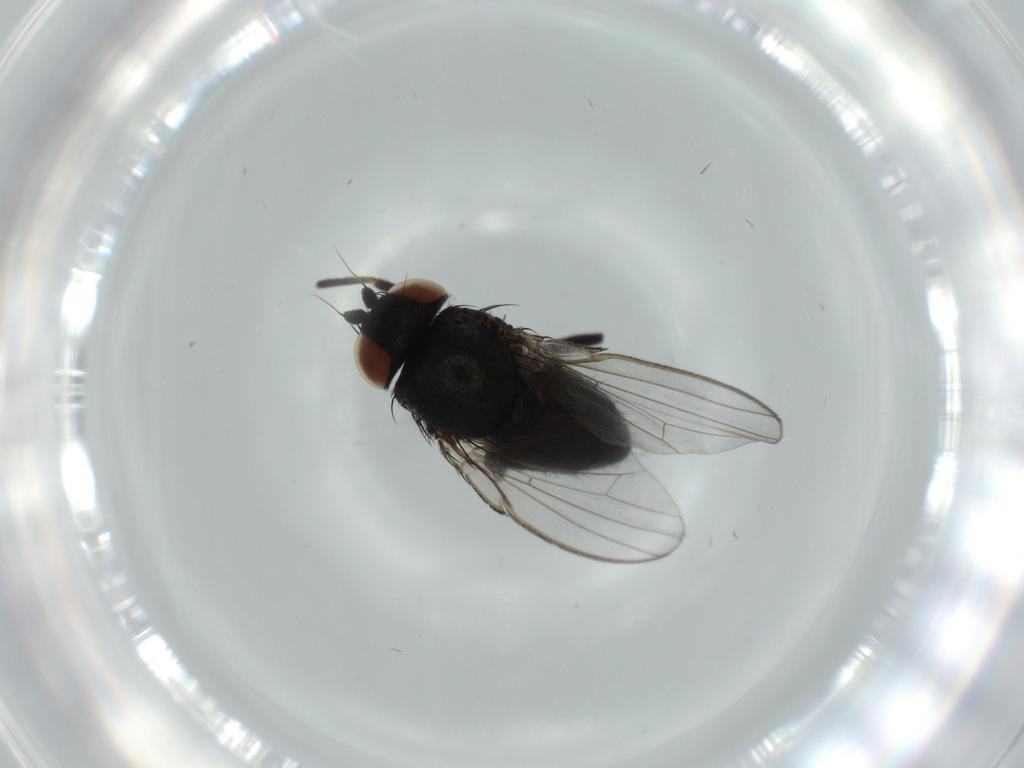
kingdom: Animalia
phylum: Arthropoda
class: Insecta
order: Diptera
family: Milichiidae
